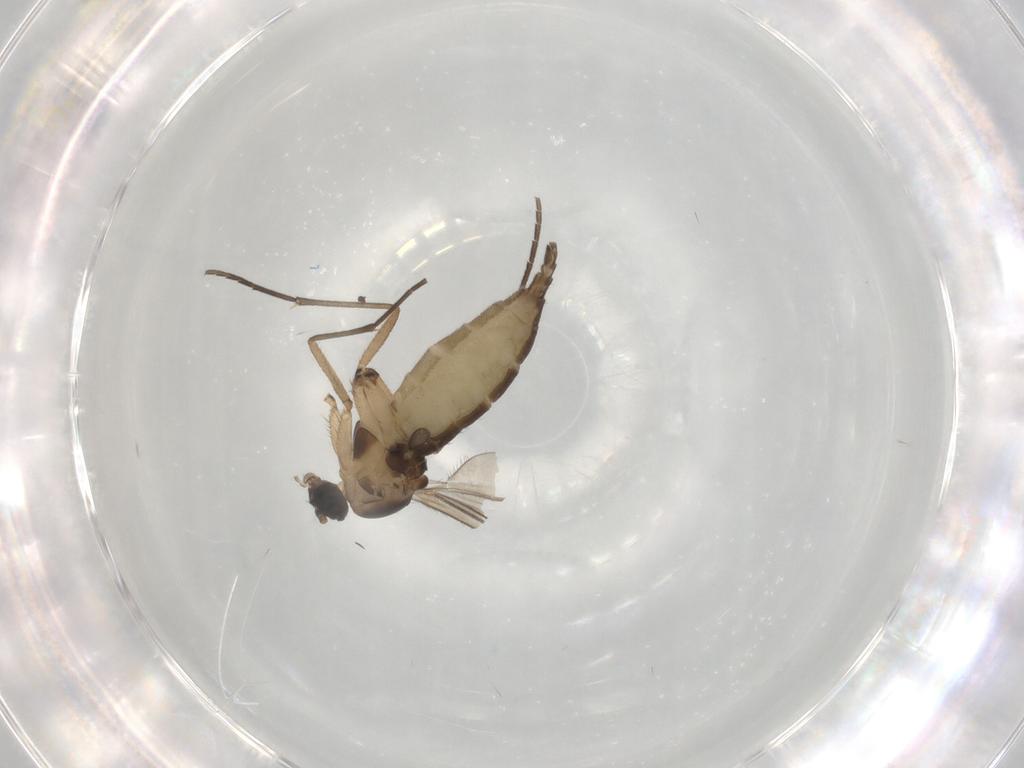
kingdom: Animalia
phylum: Arthropoda
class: Insecta
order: Diptera
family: Sciaridae
